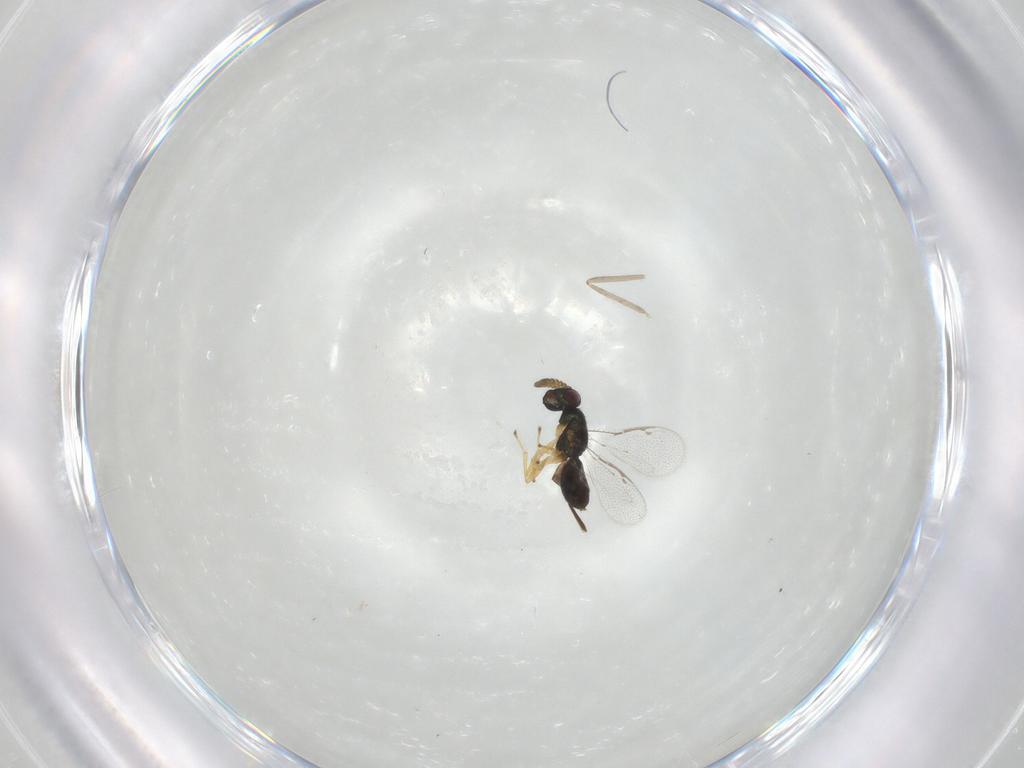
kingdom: Animalia
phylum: Arthropoda
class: Insecta
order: Hymenoptera
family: Pirenidae
